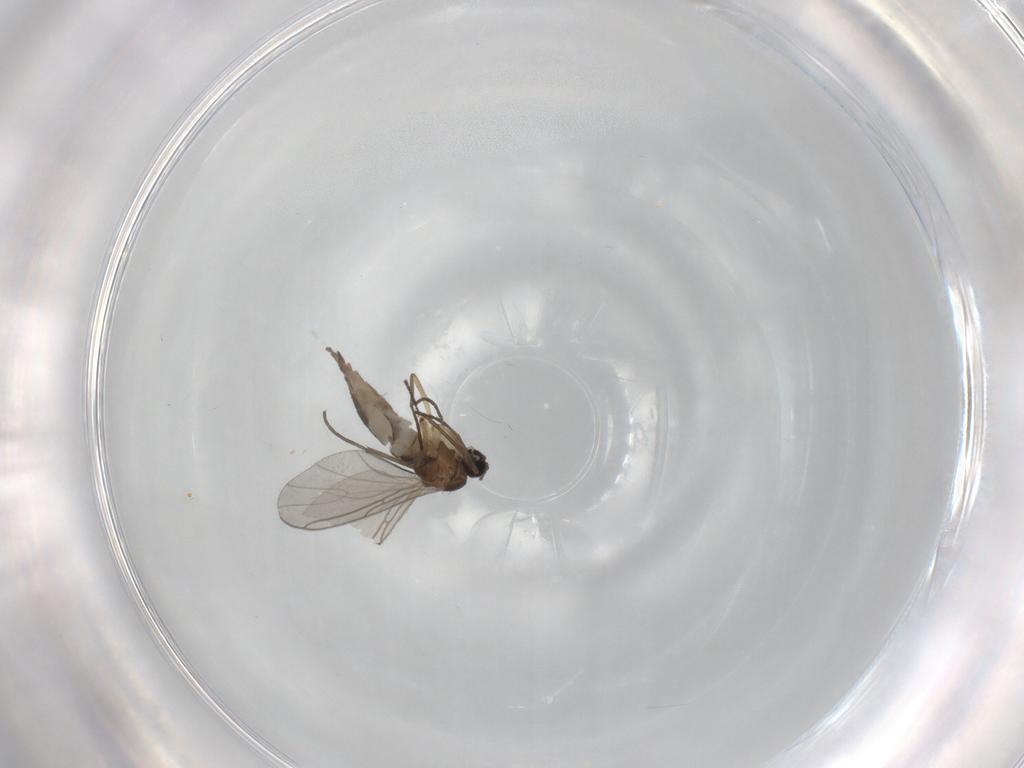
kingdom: Animalia
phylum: Arthropoda
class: Insecta
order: Diptera
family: Sciaridae
